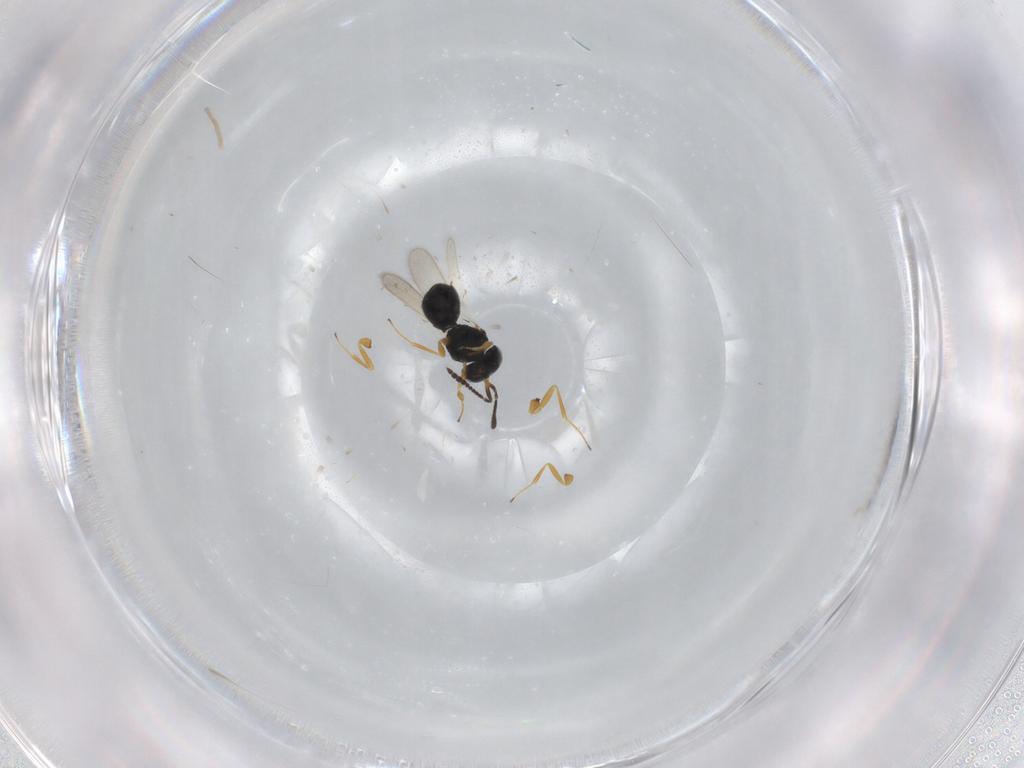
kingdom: Animalia
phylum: Arthropoda
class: Insecta
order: Hymenoptera
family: Scelionidae
